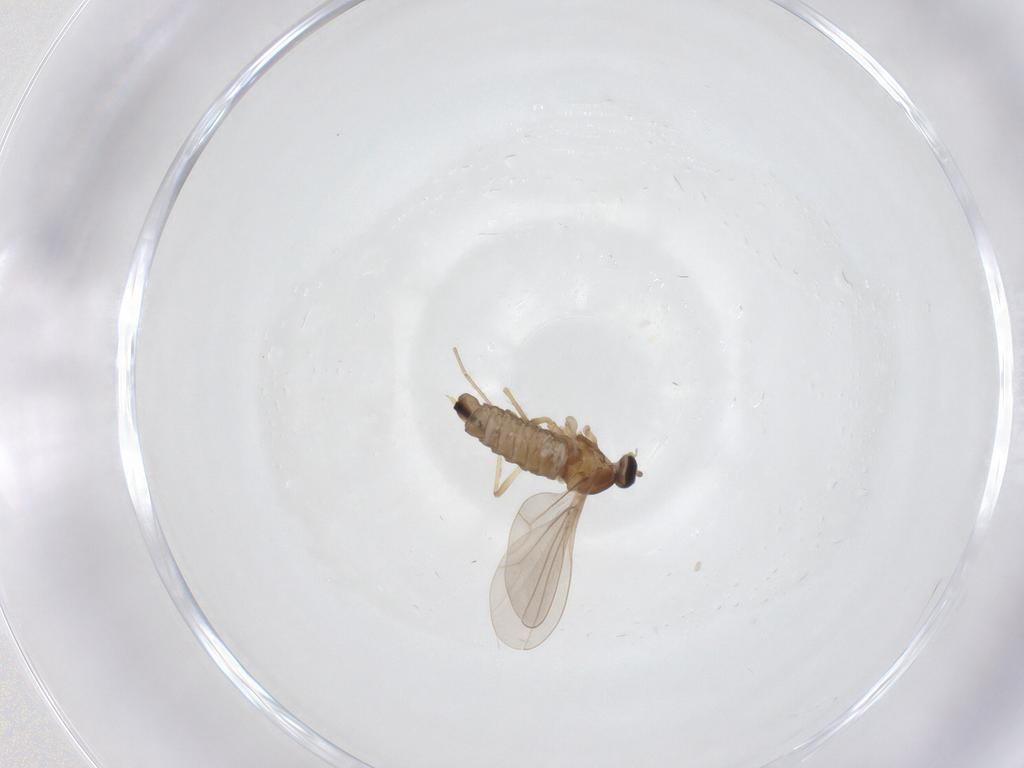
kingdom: Animalia
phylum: Arthropoda
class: Insecta
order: Diptera
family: Cecidomyiidae
